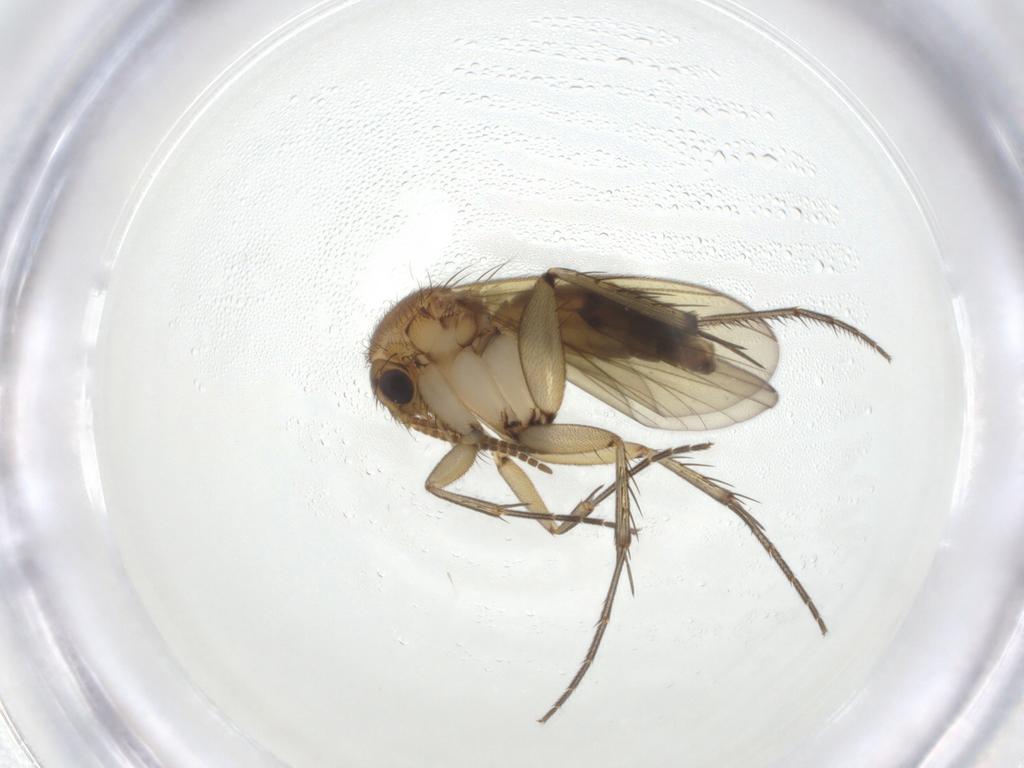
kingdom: Animalia
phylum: Arthropoda
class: Insecta
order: Diptera
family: Mycetophilidae
